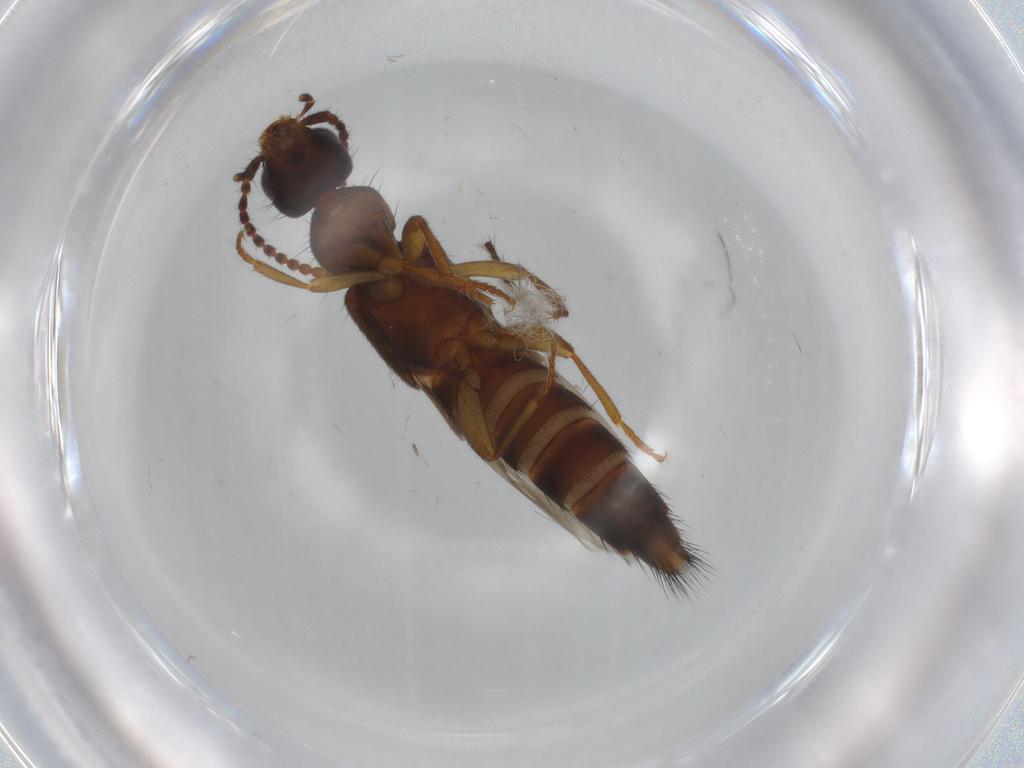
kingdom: Animalia
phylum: Arthropoda
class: Insecta
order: Coleoptera
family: Staphylinidae
